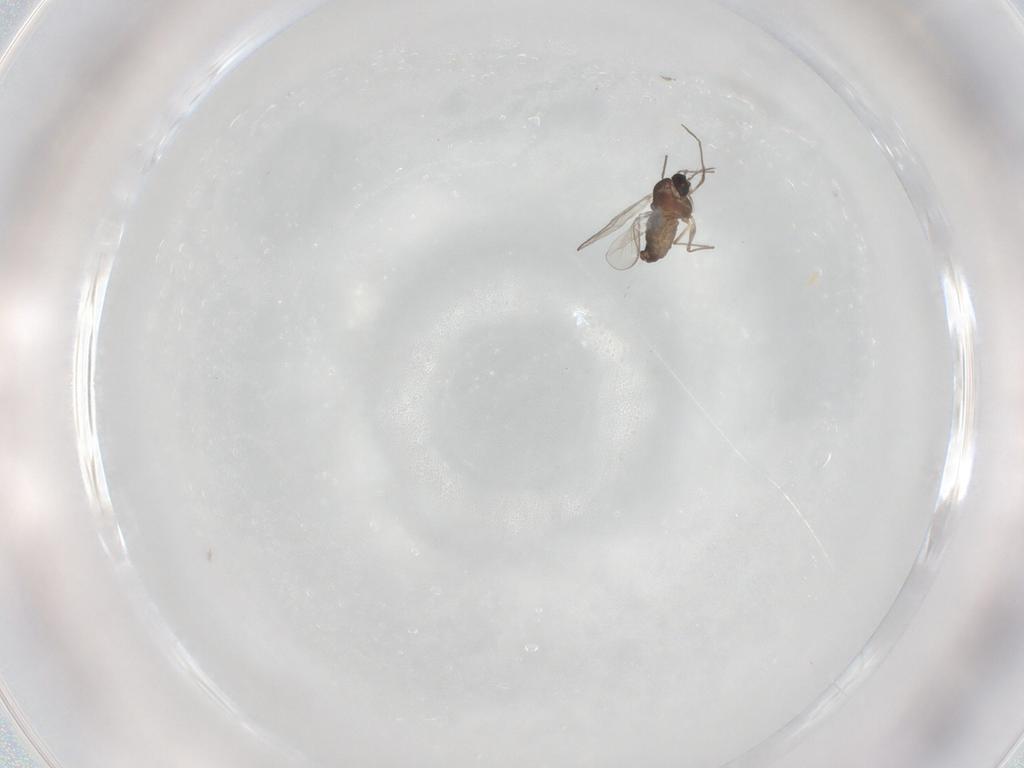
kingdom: Animalia
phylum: Arthropoda
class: Insecta
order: Diptera
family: Chironomidae
